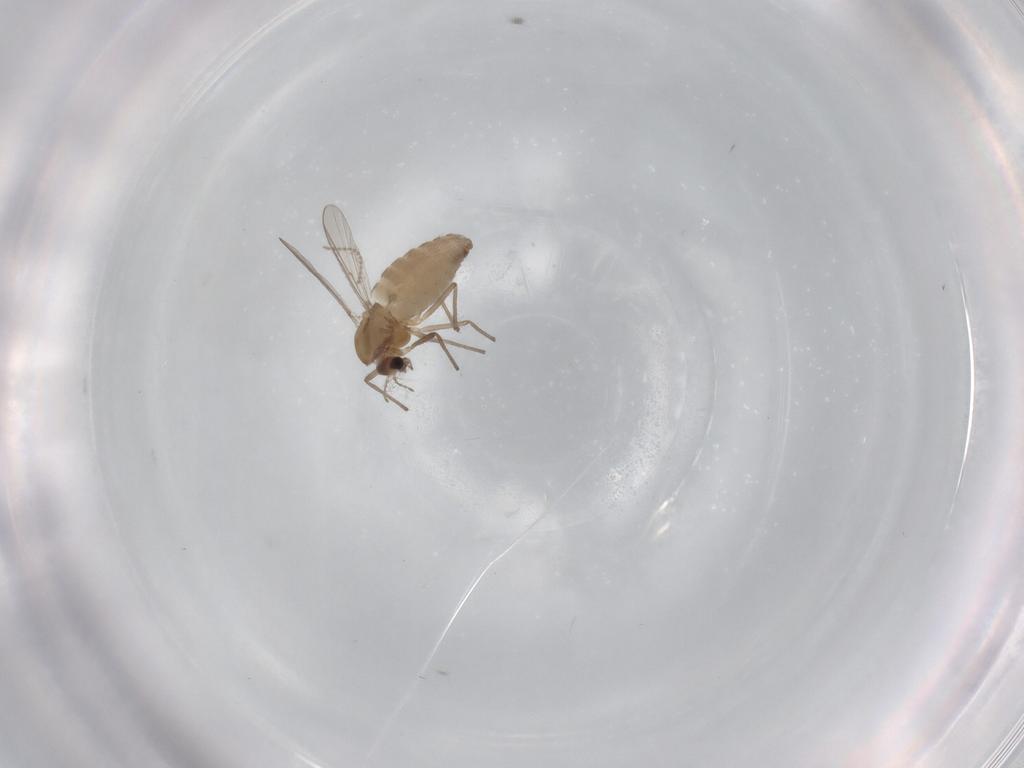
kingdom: Animalia
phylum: Arthropoda
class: Insecta
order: Diptera
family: Chironomidae
